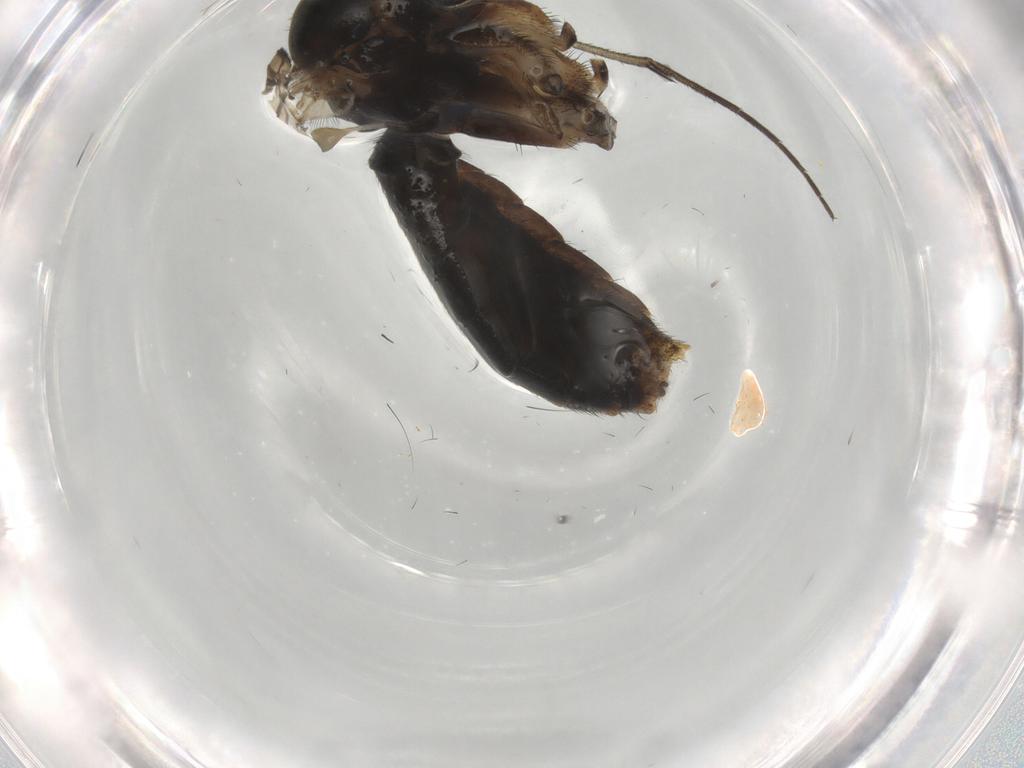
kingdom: Animalia
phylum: Arthropoda
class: Insecta
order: Diptera
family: Keroplatidae
